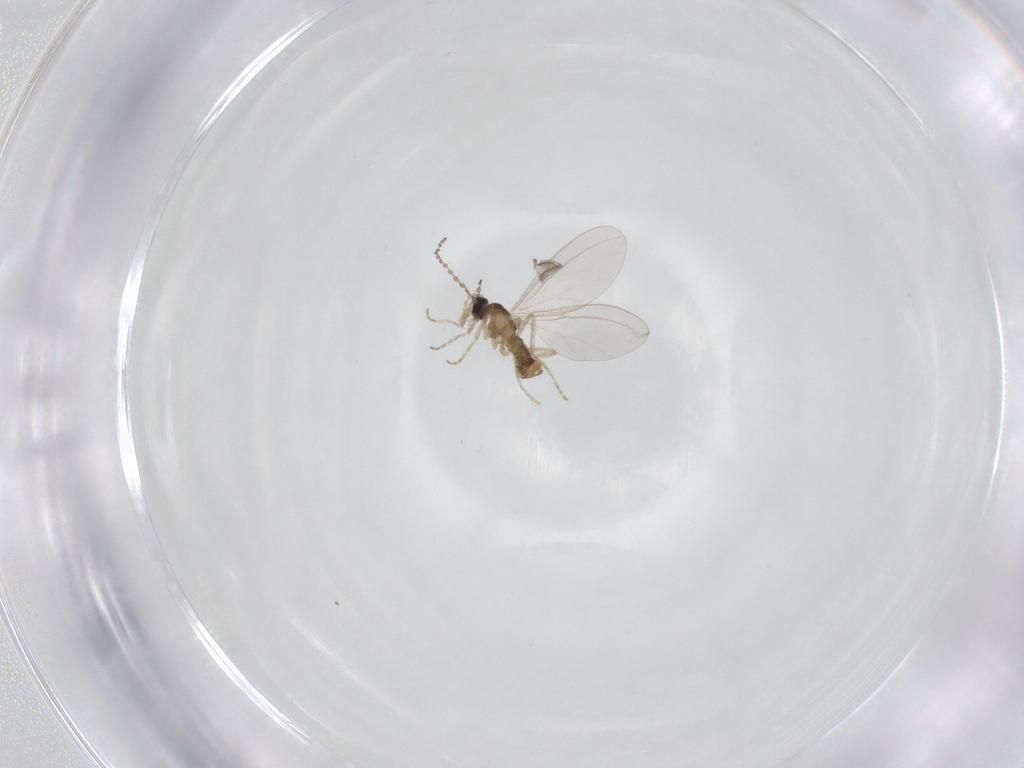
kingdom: Animalia
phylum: Arthropoda
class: Insecta
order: Diptera
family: Cecidomyiidae
